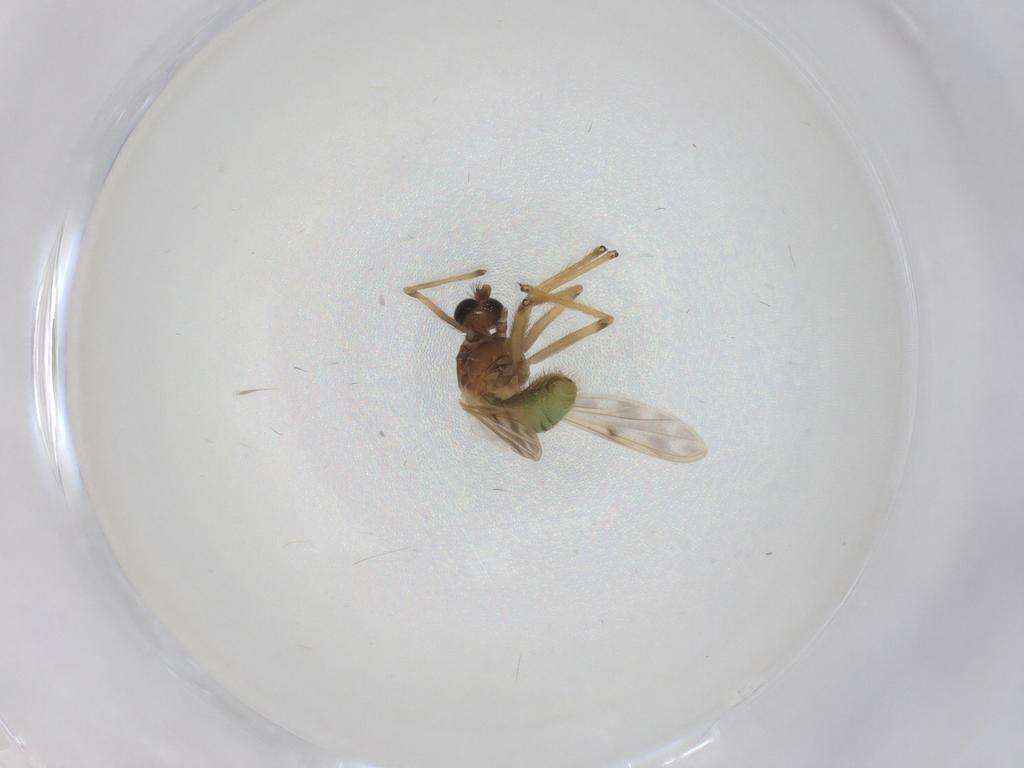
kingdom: Animalia
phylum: Arthropoda
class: Insecta
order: Diptera
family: Chironomidae
